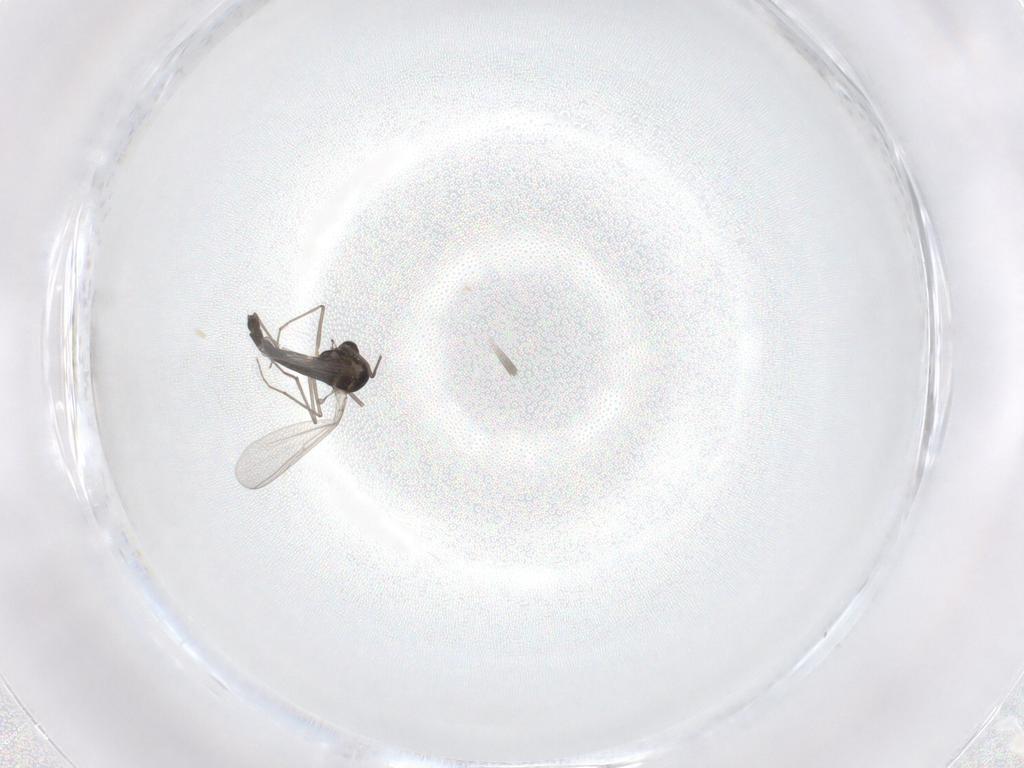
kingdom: Animalia
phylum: Arthropoda
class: Insecta
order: Diptera
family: Chironomidae
